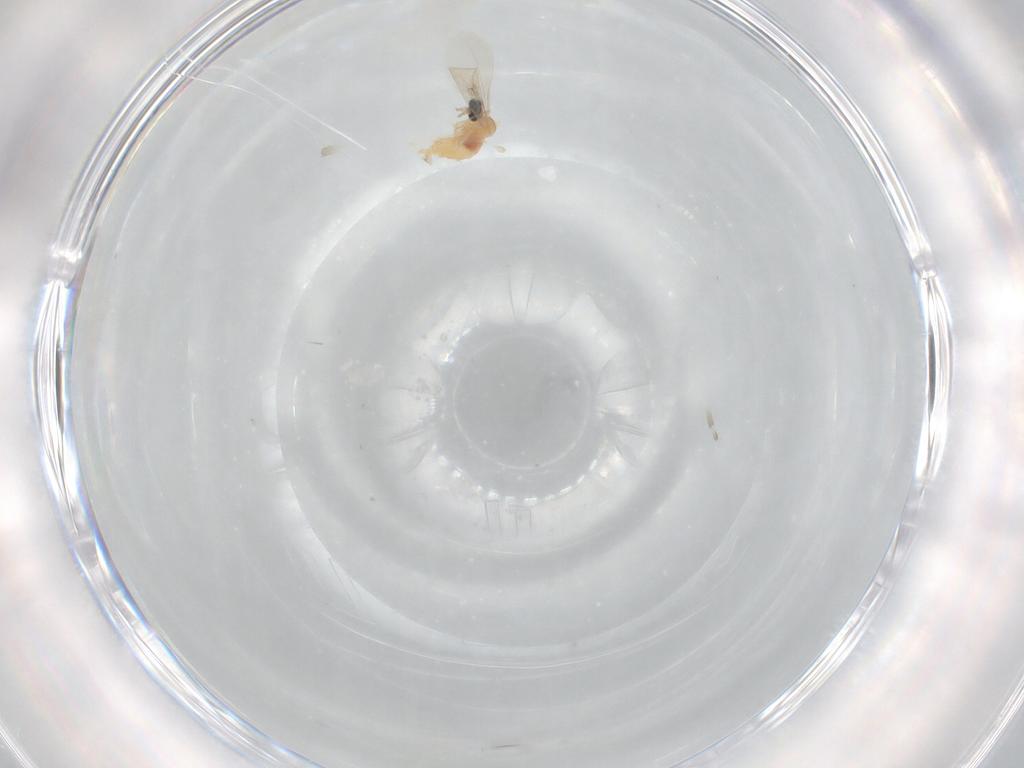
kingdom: Animalia
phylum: Arthropoda
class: Insecta
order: Diptera
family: Cecidomyiidae
